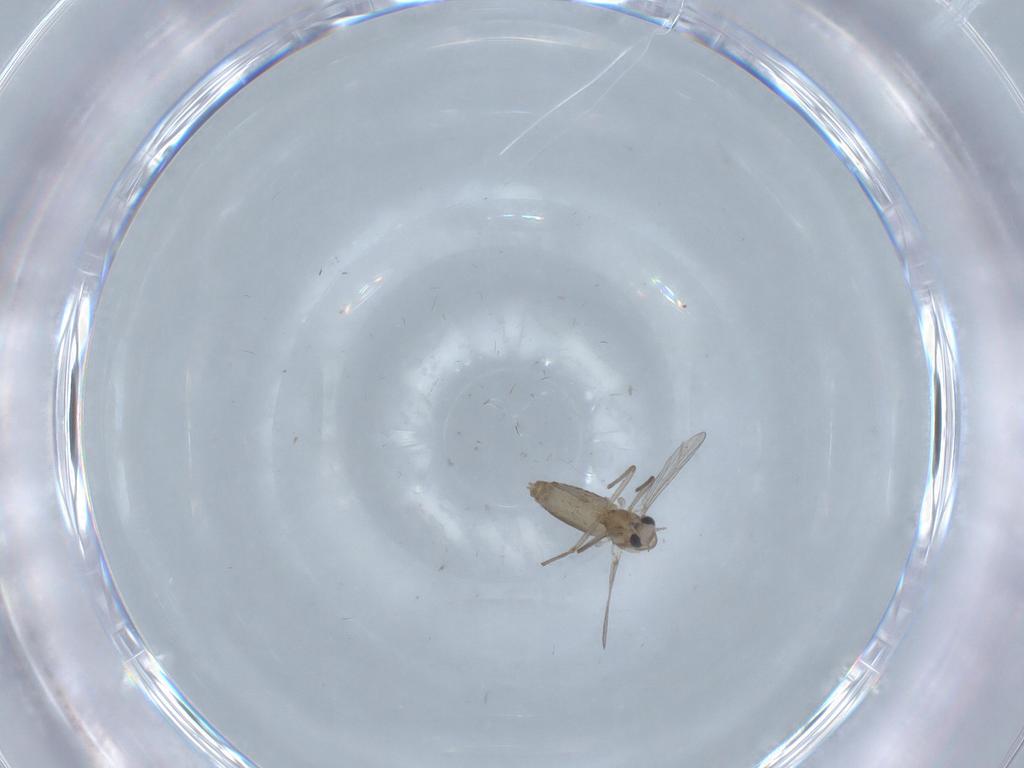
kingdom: Animalia
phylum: Arthropoda
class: Insecta
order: Diptera
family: Chironomidae
